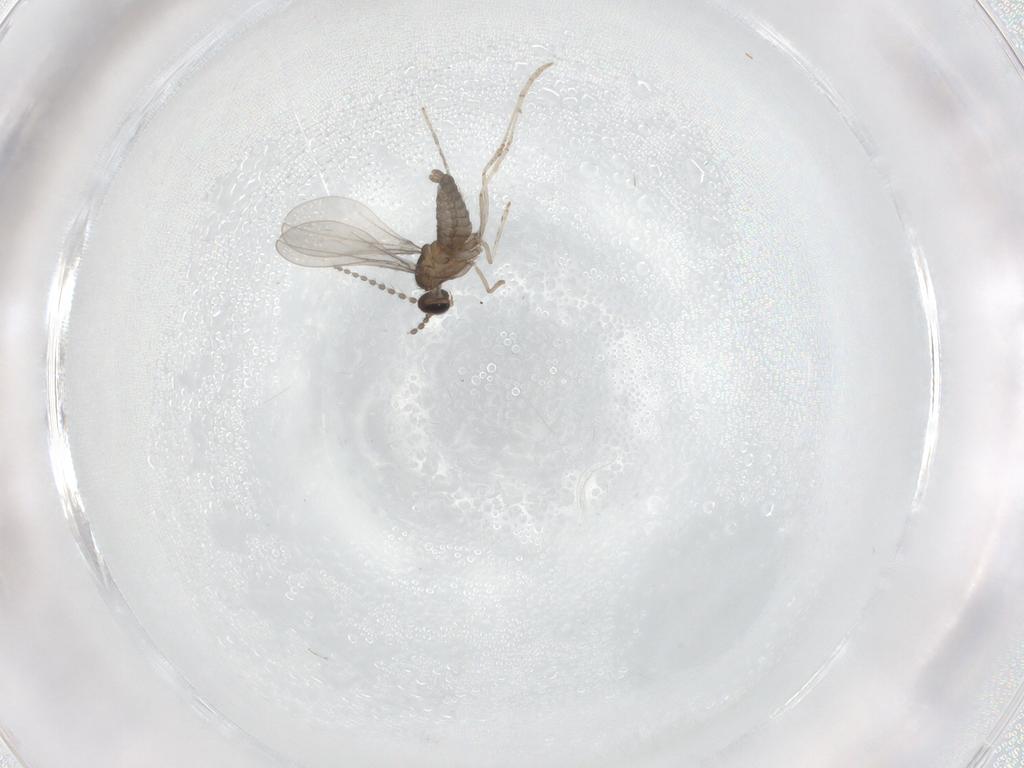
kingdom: Animalia
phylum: Arthropoda
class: Insecta
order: Diptera
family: Cecidomyiidae
